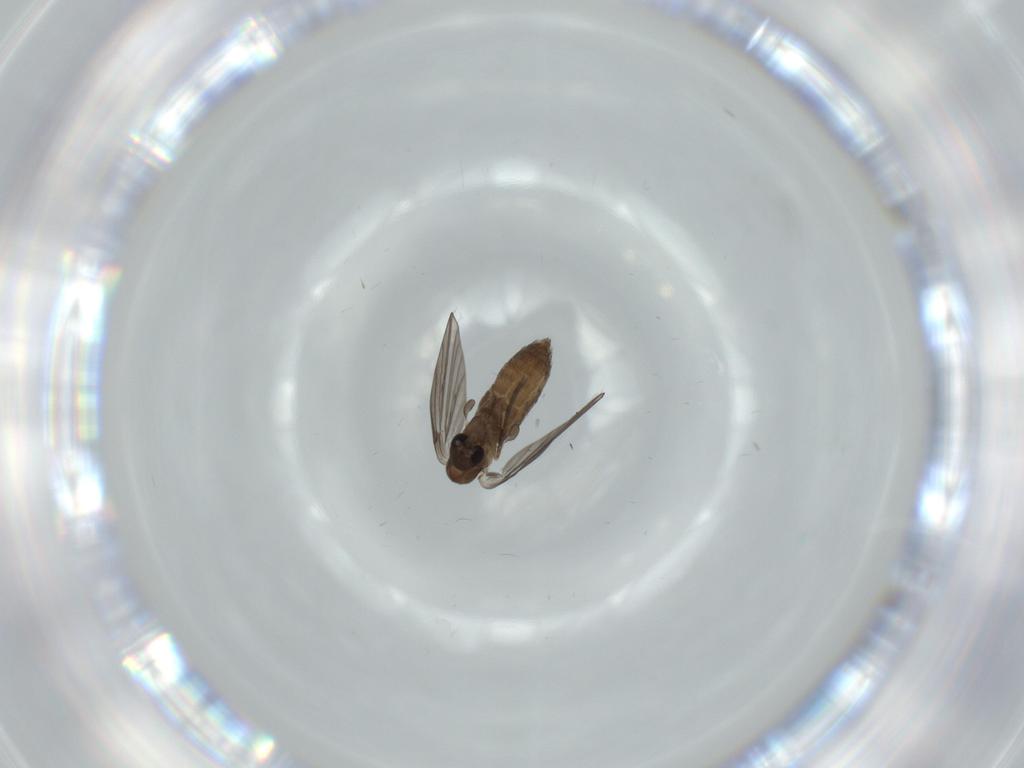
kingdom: Animalia
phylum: Arthropoda
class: Insecta
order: Diptera
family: Psychodidae
